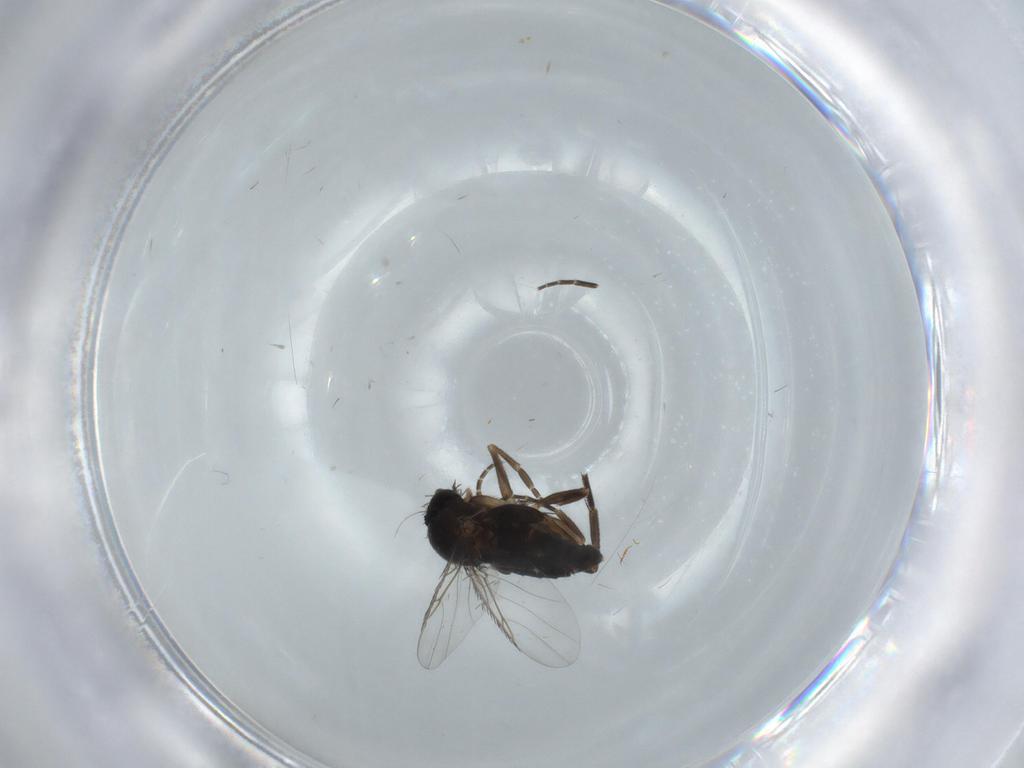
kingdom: Animalia
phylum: Arthropoda
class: Insecta
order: Diptera
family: Phoridae
